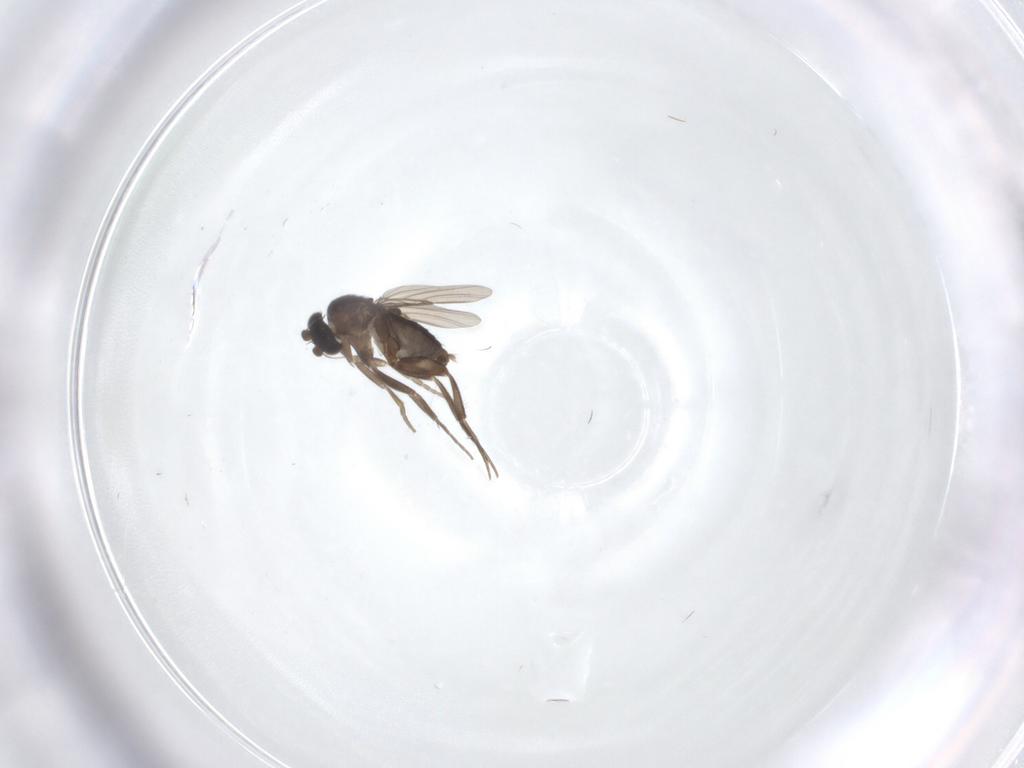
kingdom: Animalia
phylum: Arthropoda
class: Insecta
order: Diptera
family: Phoridae
